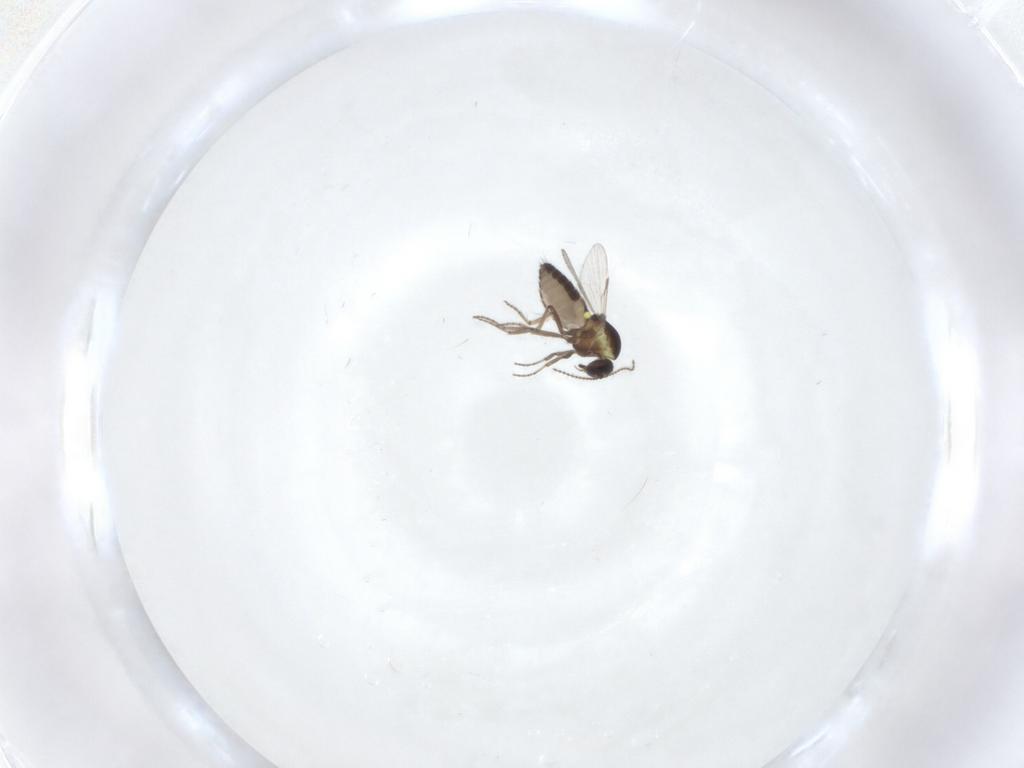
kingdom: Animalia
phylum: Arthropoda
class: Insecta
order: Diptera
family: Ceratopogonidae
